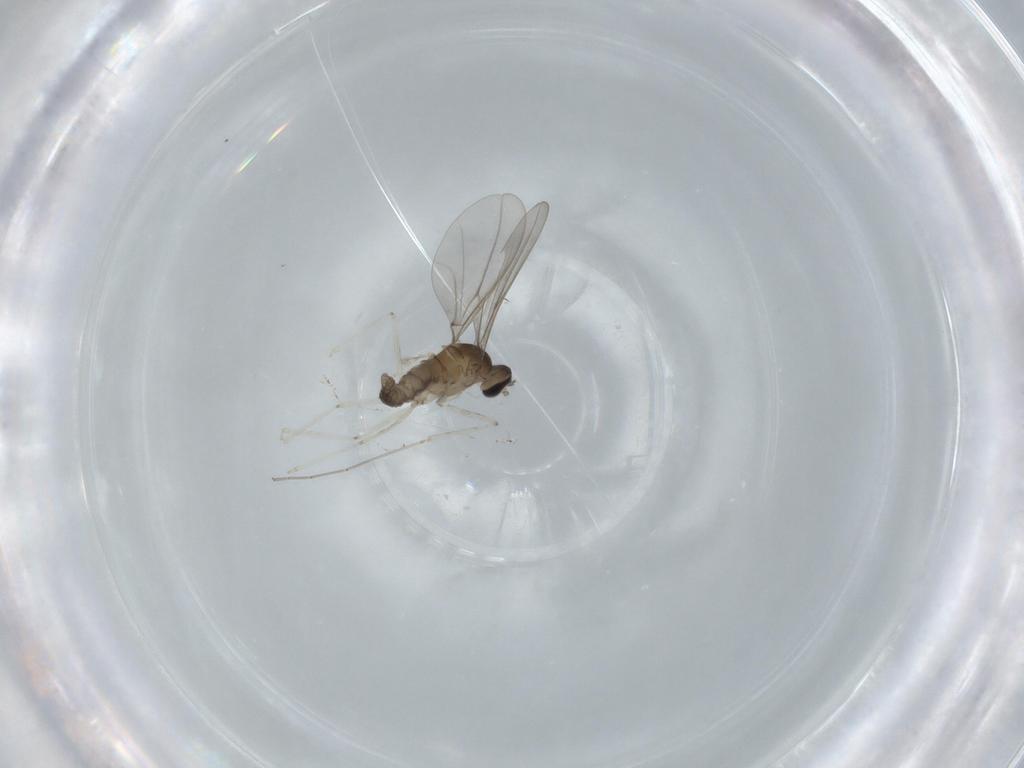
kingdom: Animalia
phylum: Arthropoda
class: Insecta
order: Diptera
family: Cecidomyiidae
